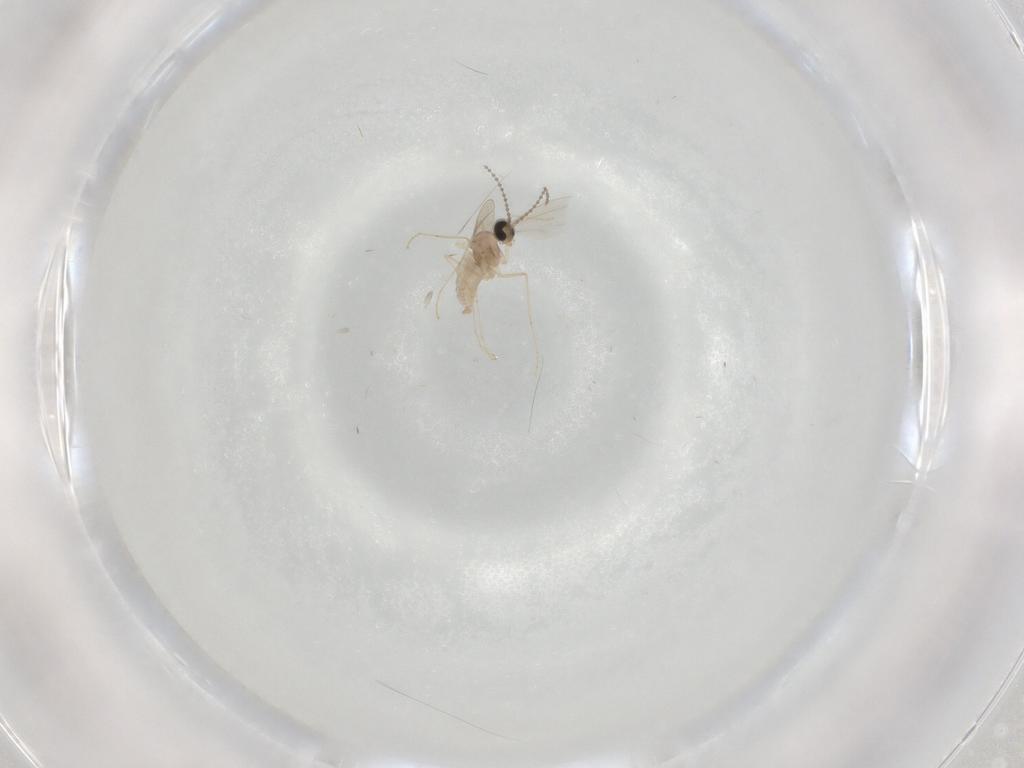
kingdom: Animalia
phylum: Arthropoda
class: Insecta
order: Diptera
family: Cecidomyiidae
